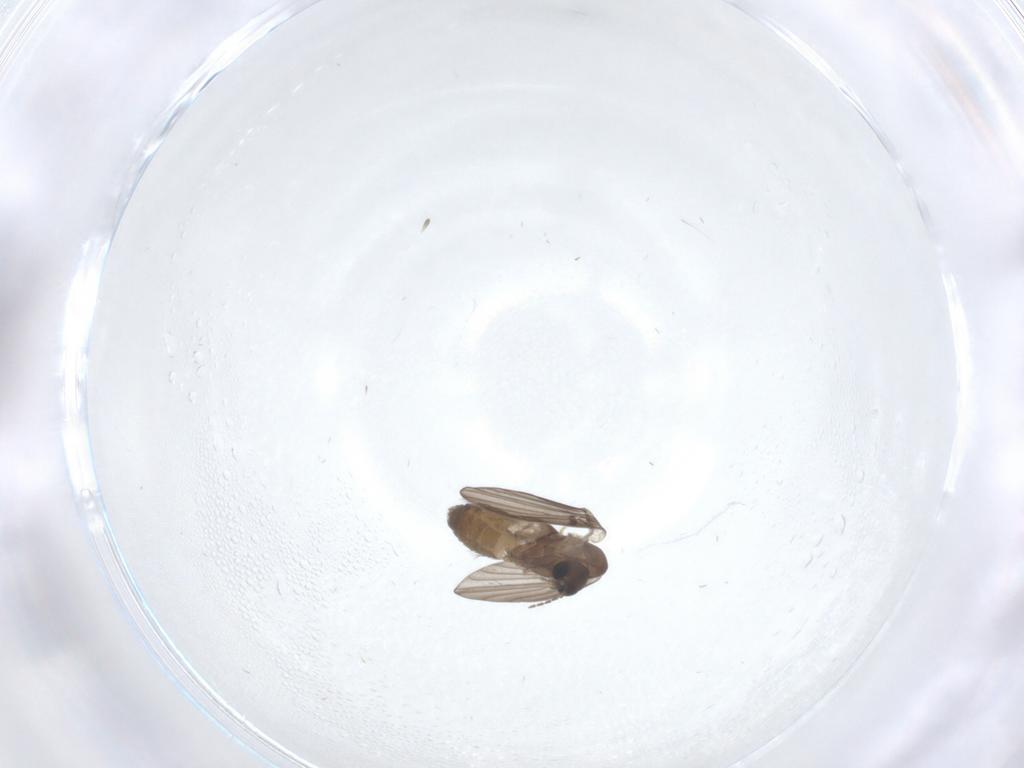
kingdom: Animalia
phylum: Arthropoda
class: Insecta
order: Diptera
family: Psychodidae
